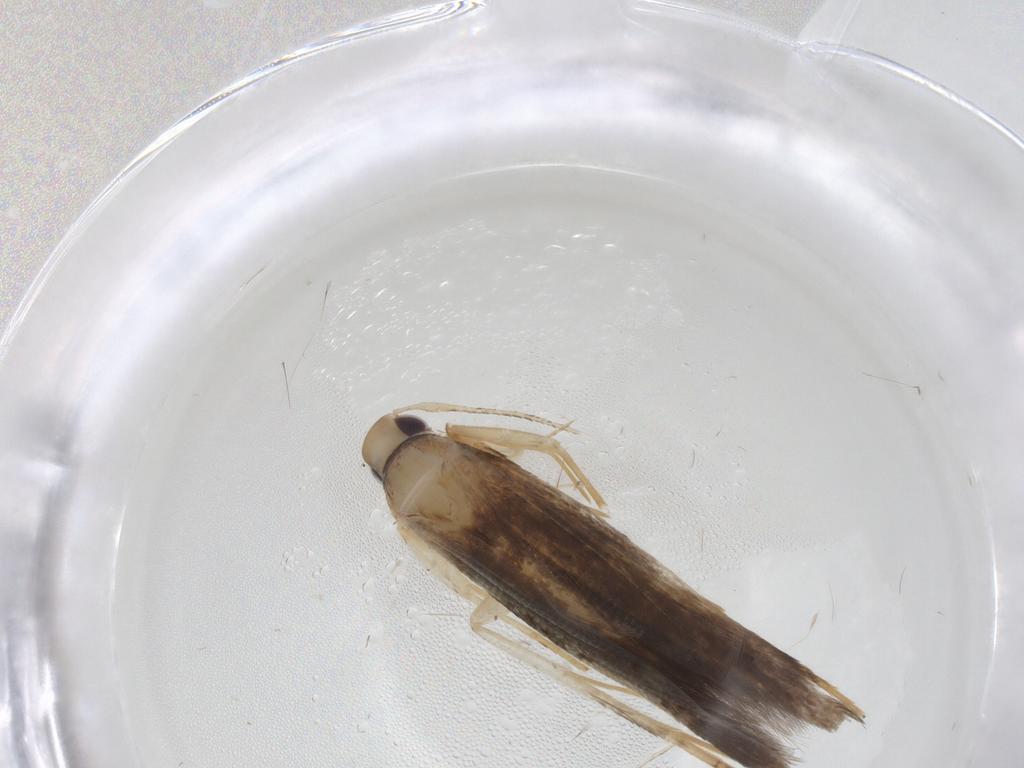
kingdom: Animalia
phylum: Arthropoda
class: Insecta
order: Lepidoptera
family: Cosmopterigidae
